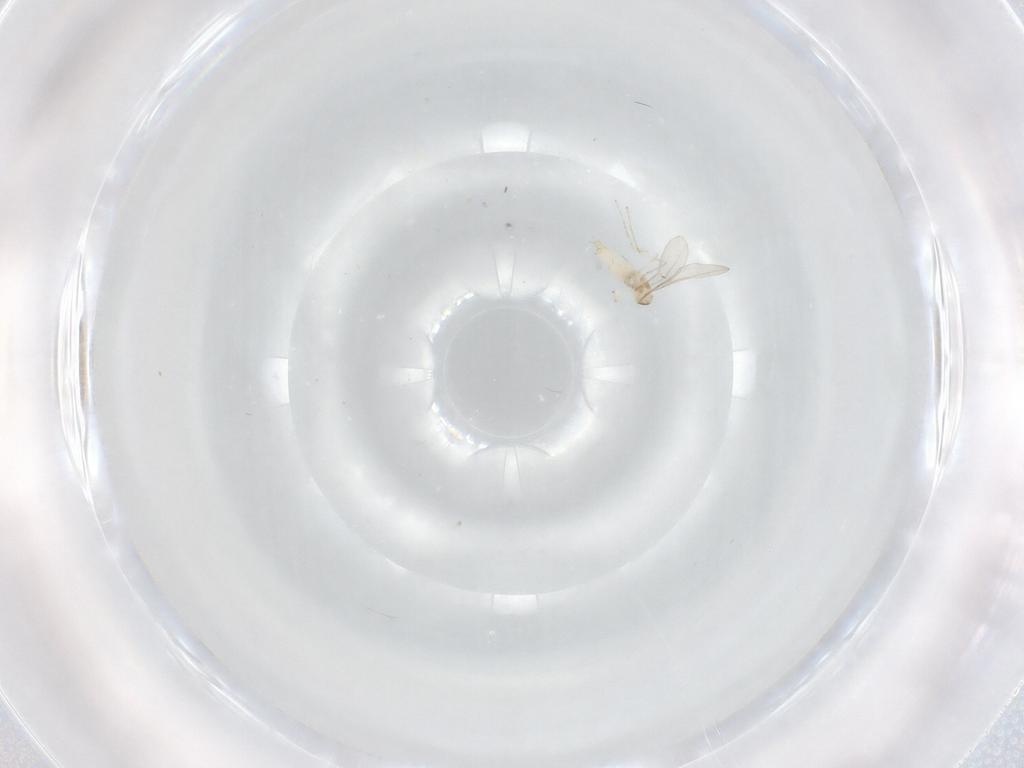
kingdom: Animalia
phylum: Arthropoda
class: Insecta
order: Diptera
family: Cecidomyiidae
